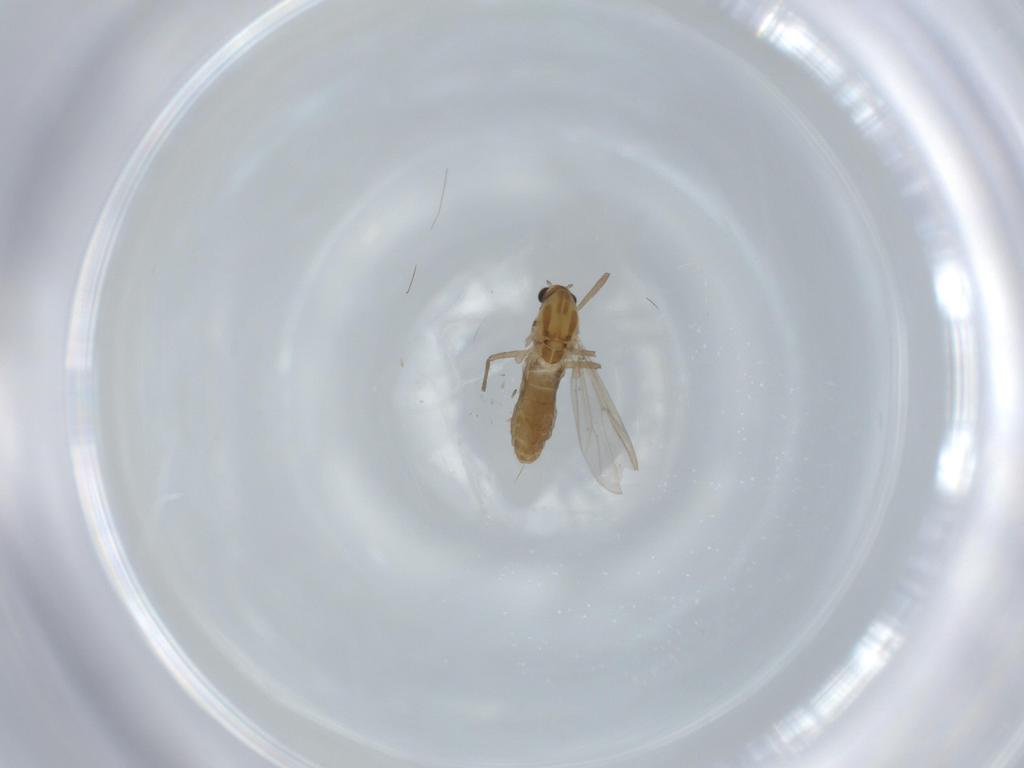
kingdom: Animalia
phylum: Arthropoda
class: Insecta
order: Diptera
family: Chironomidae
